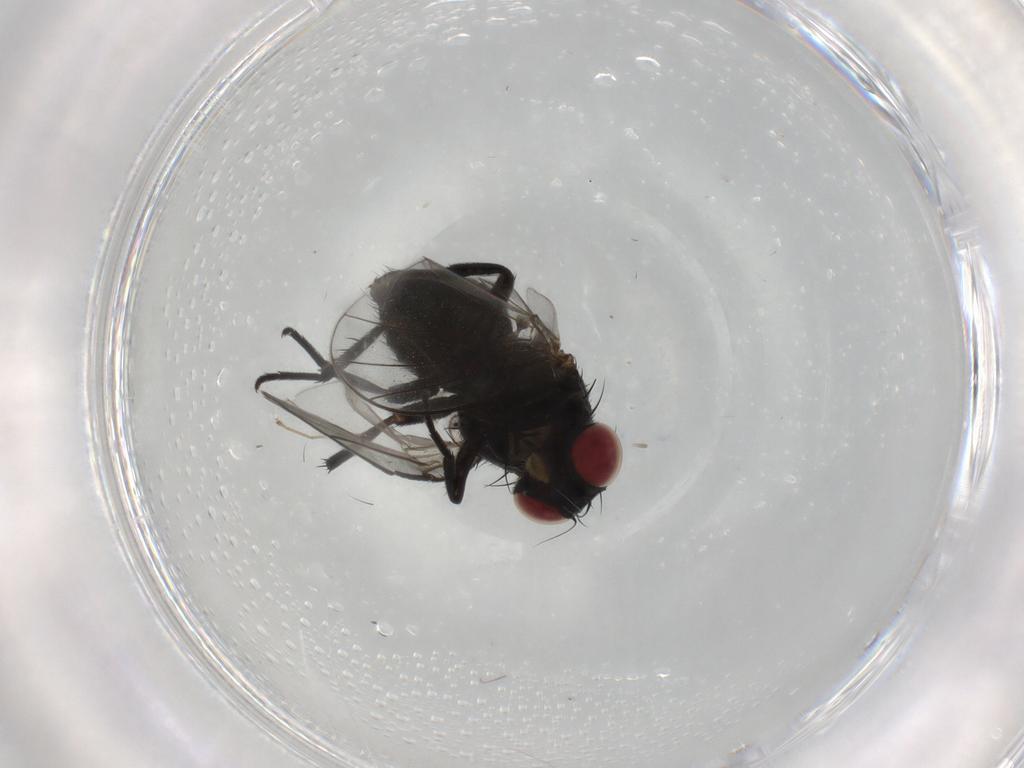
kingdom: Animalia
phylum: Arthropoda
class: Insecta
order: Diptera
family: Agromyzidae
